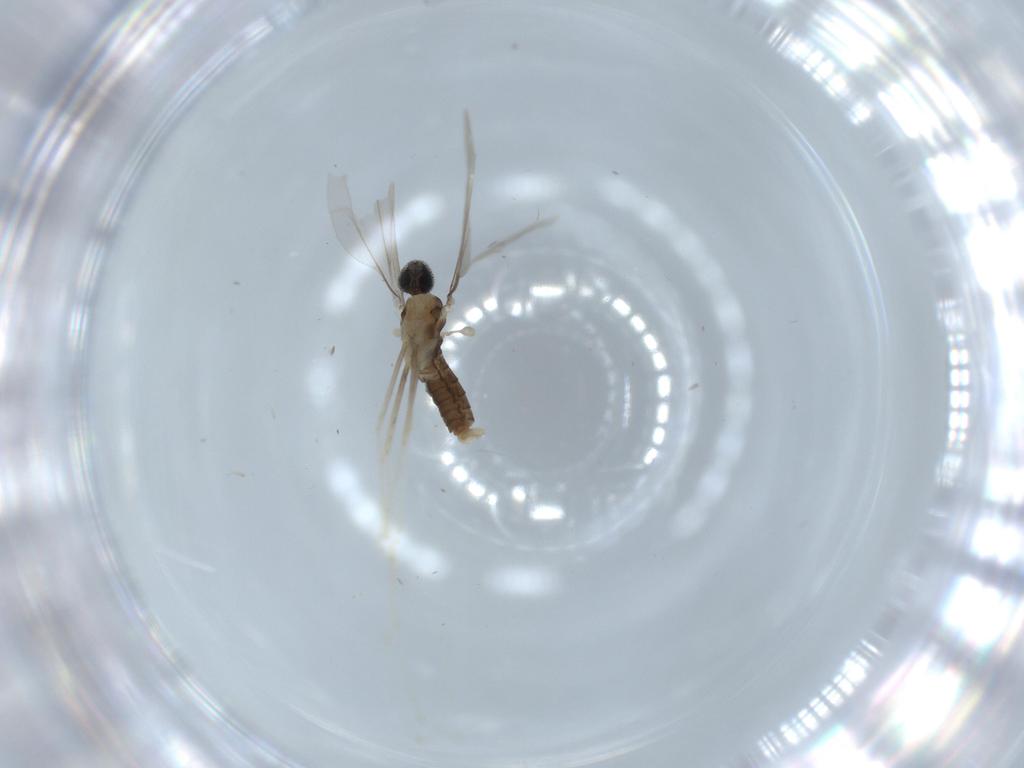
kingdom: Animalia
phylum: Arthropoda
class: Insecta
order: Diptera
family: Cecidomyiidae
